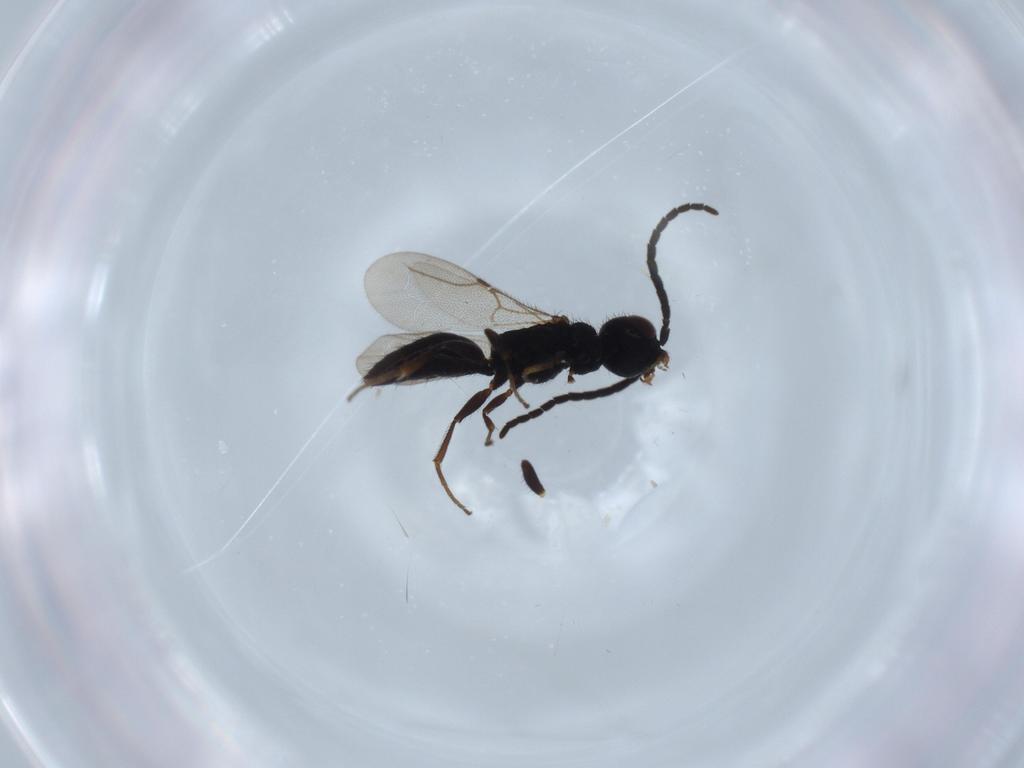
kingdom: Animalia
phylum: Arthropoda
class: Insecta
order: Hymenoptera
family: Bethylidae
